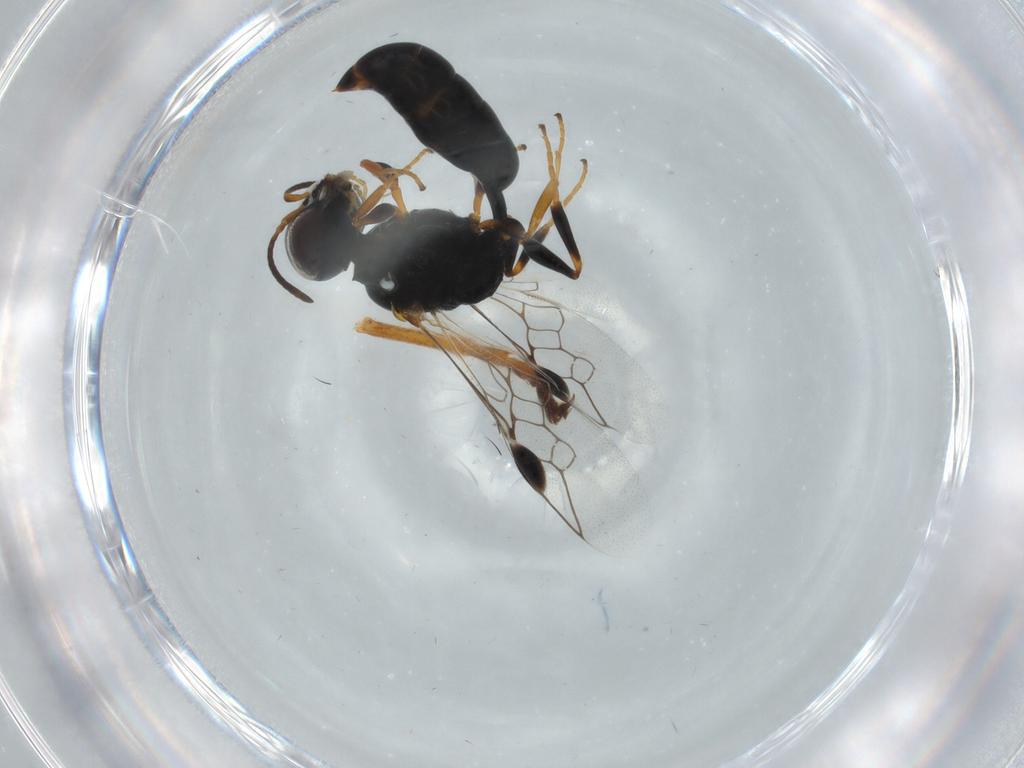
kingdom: Animalia
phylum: Arthropoda
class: Insecta
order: Hymenoptera
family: Pemphredonidae
